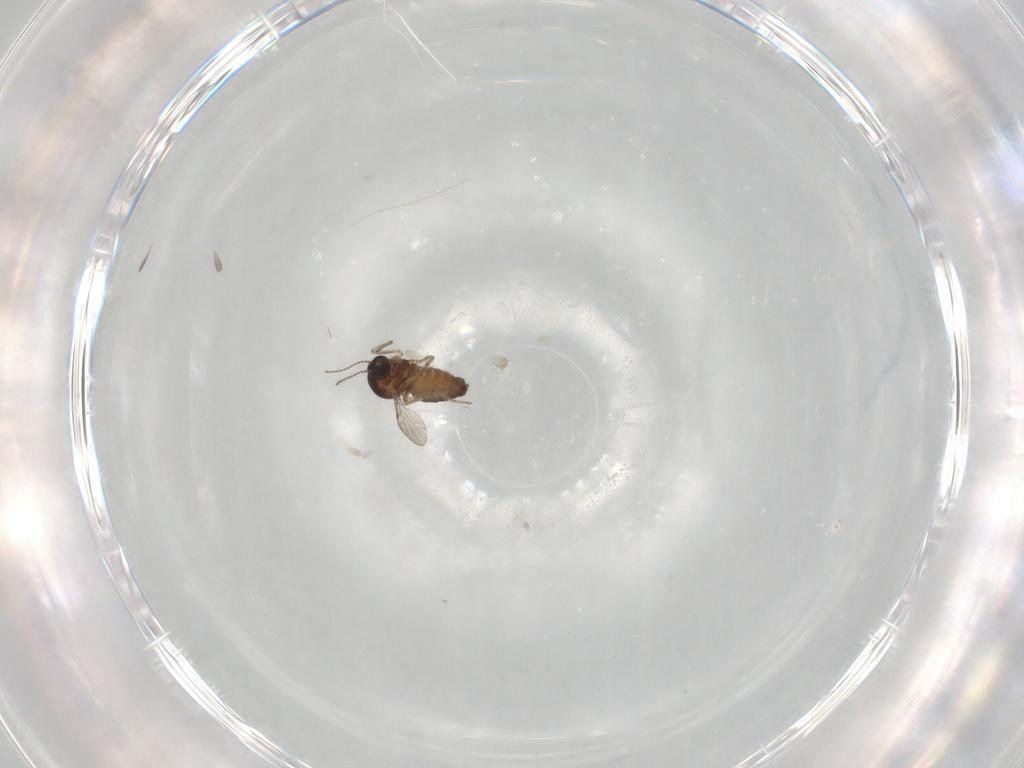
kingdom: Animalia
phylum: Arthropoda
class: Insecta
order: Diptera
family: Ceratopogonidae
